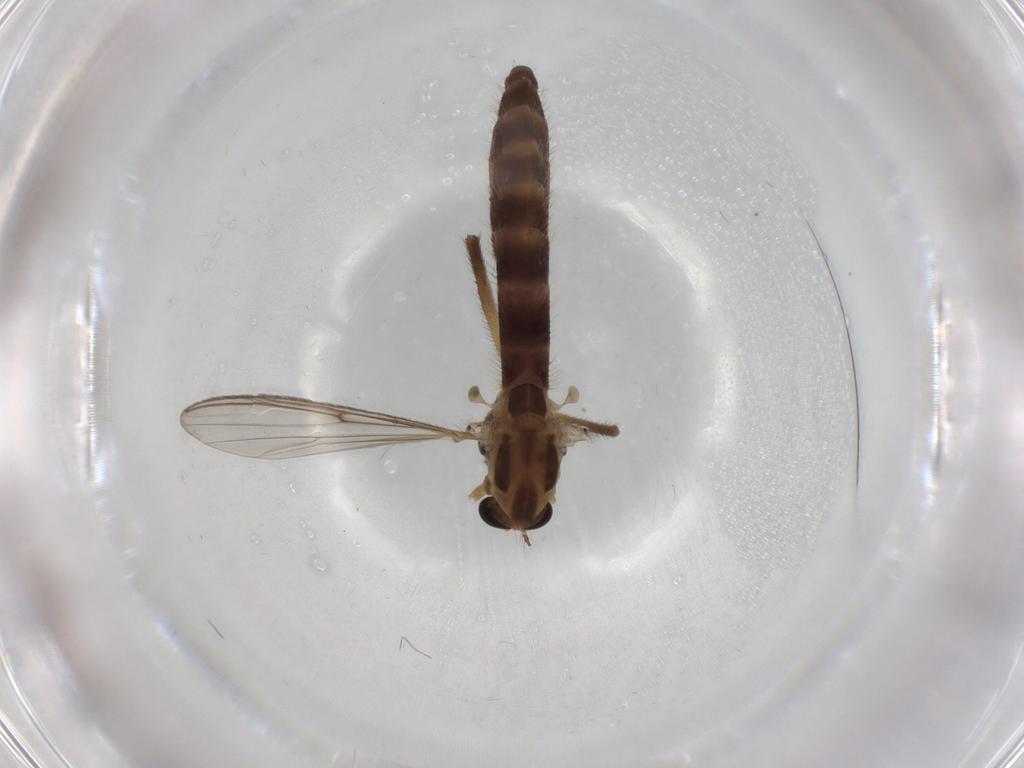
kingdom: Animalia
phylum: Arthropoda
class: Insecta
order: Diptera
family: Chironomidae
